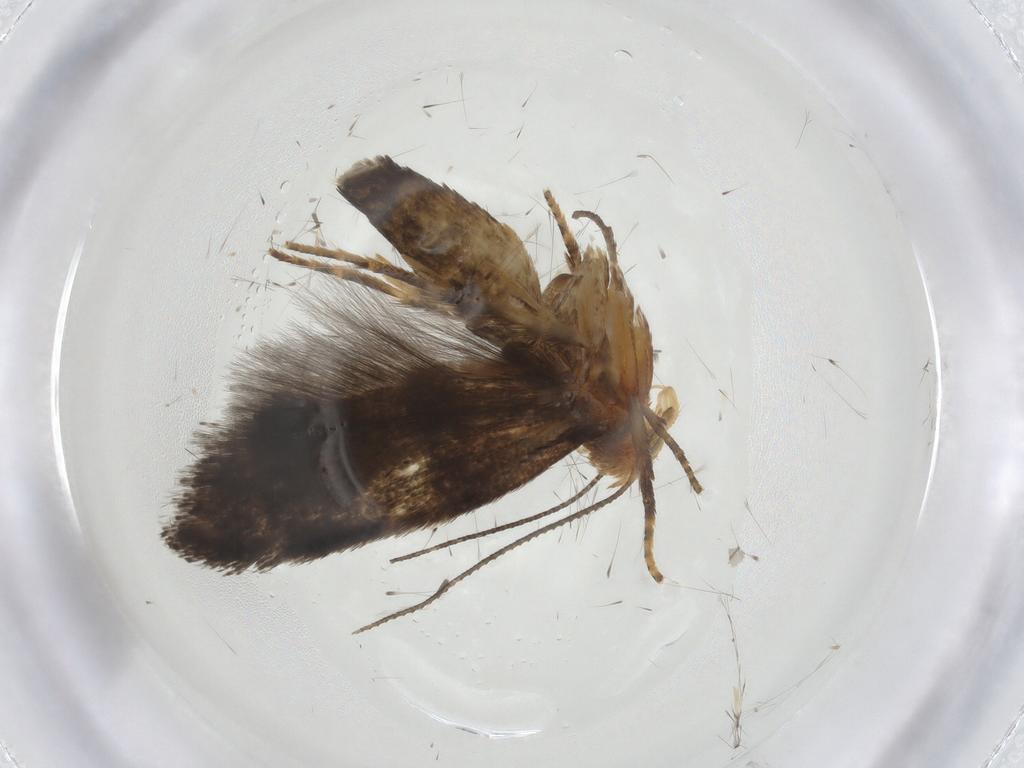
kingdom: Animalia
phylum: Arthropoda
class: Insecta
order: Lepidoptera
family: Gelechiidae
